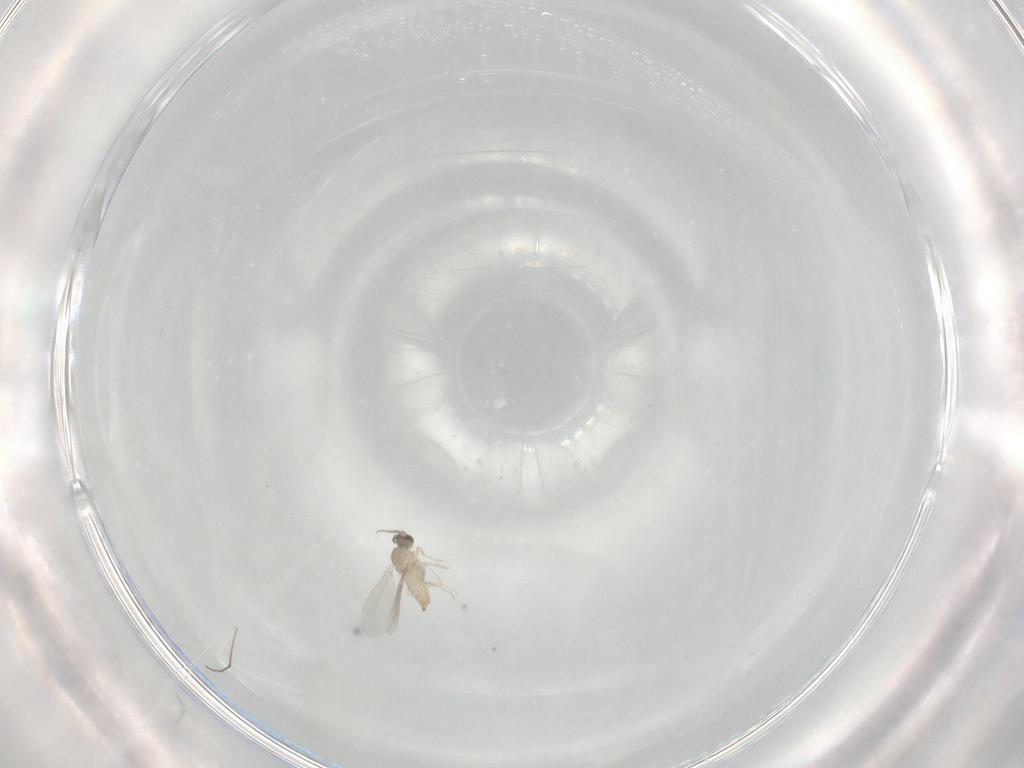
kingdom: Animalia
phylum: Arthropoda
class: Insecta
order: Diptera
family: Cecidomyiidae
